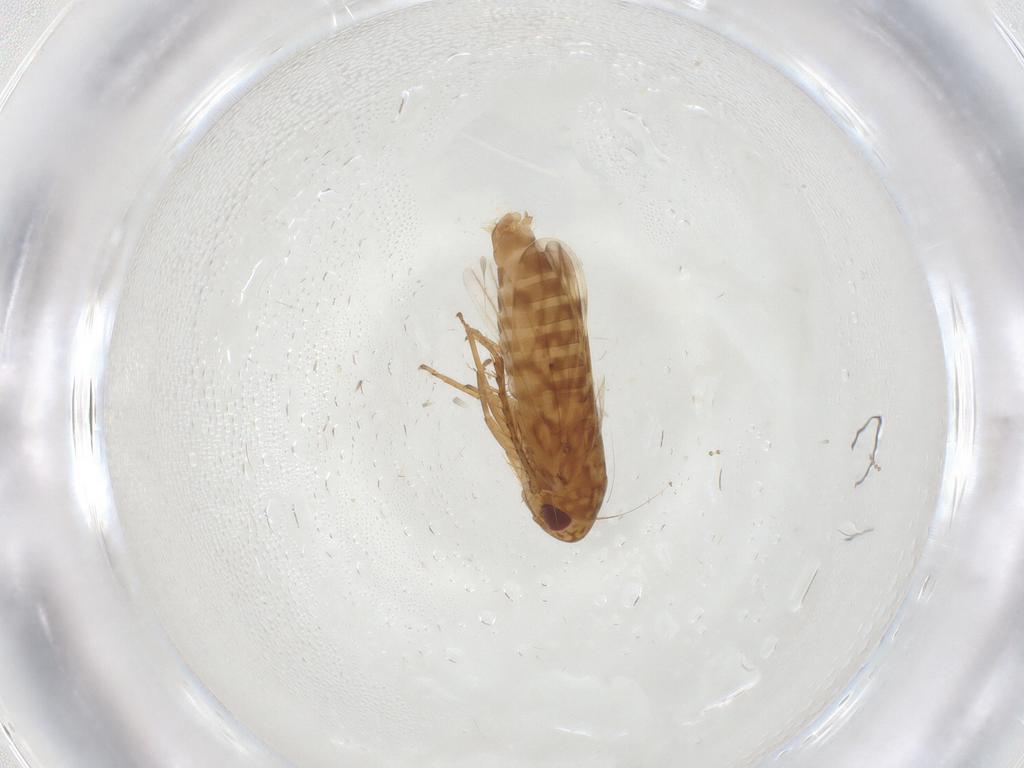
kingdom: Animalia
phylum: Arthropoda
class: Insecta
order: Hemiptera
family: Cicadellidae
